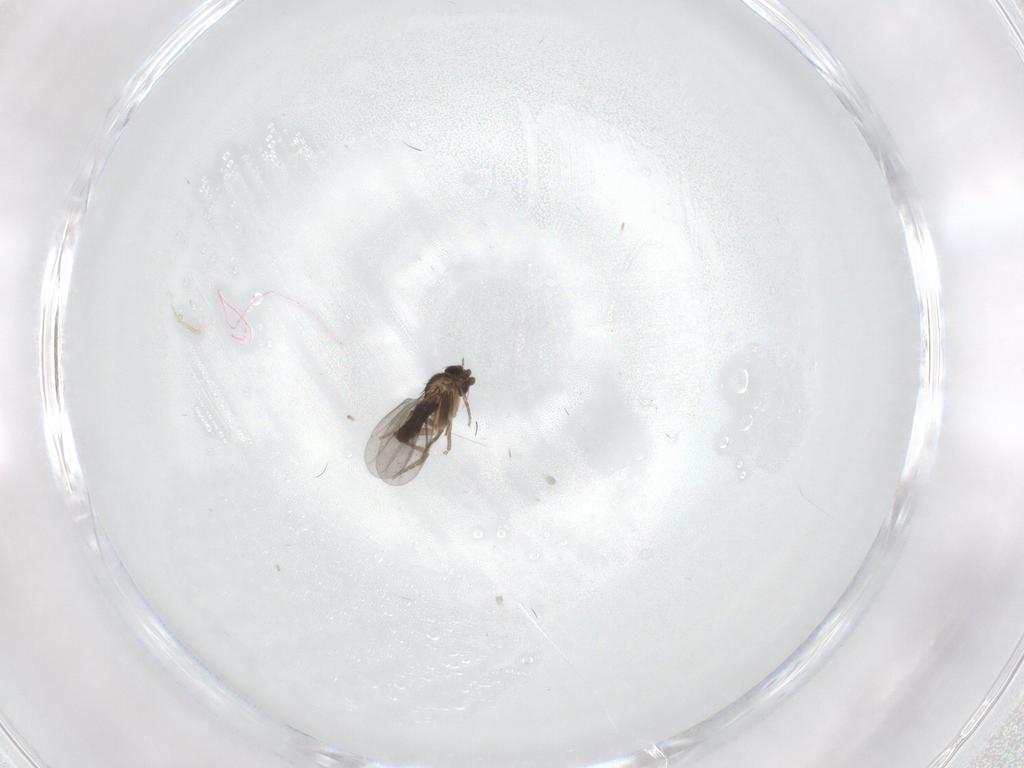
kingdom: Animalia
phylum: Arthropoda
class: Insecta
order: Diptera
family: Phoridae
